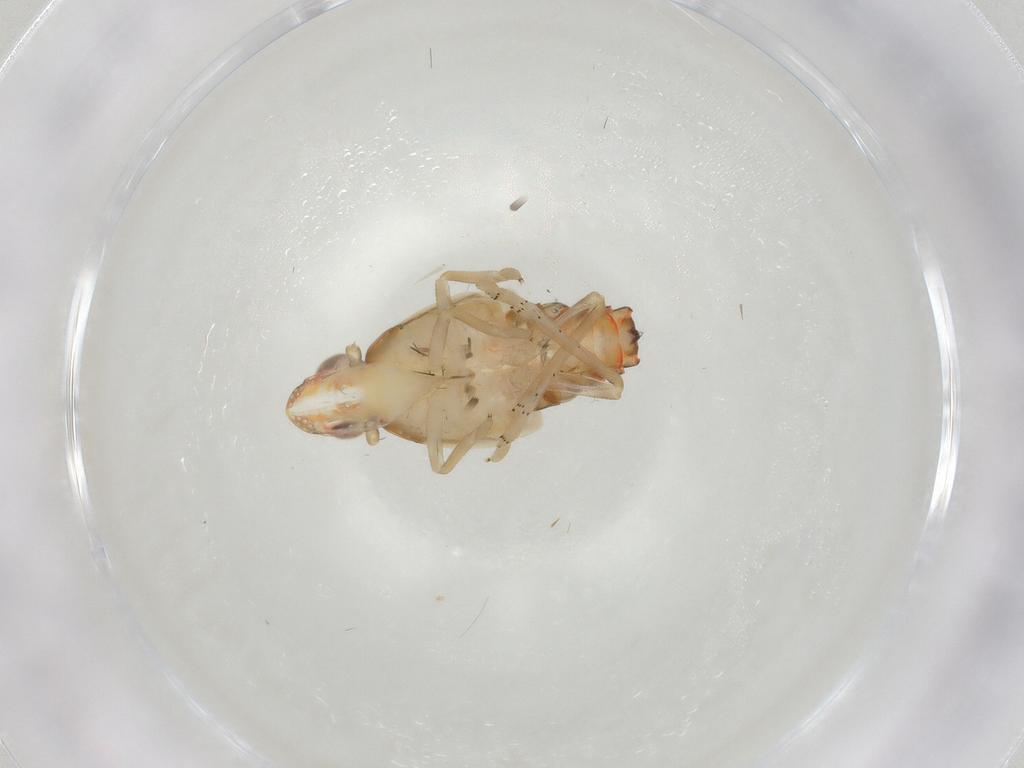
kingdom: Animalia
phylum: Arthropoda
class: Insecta
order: Hemiptera
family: Tropiduchidae
